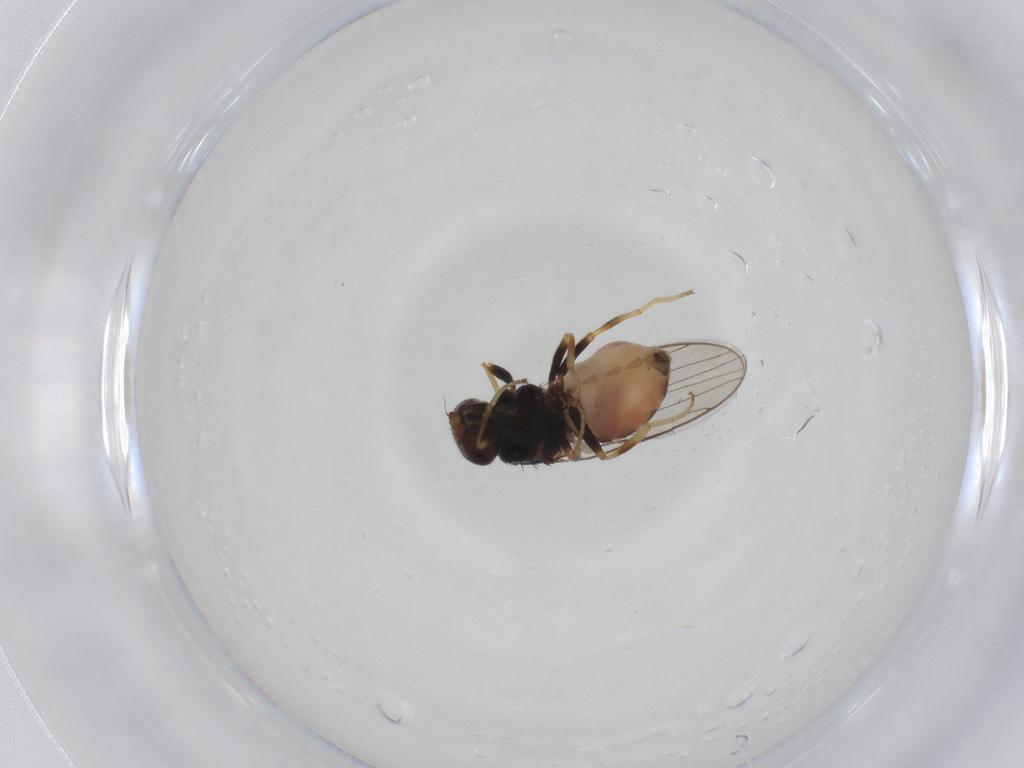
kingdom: Animalia
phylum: Arthropoda
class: Insecta
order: Diptera
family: Chloropidae
